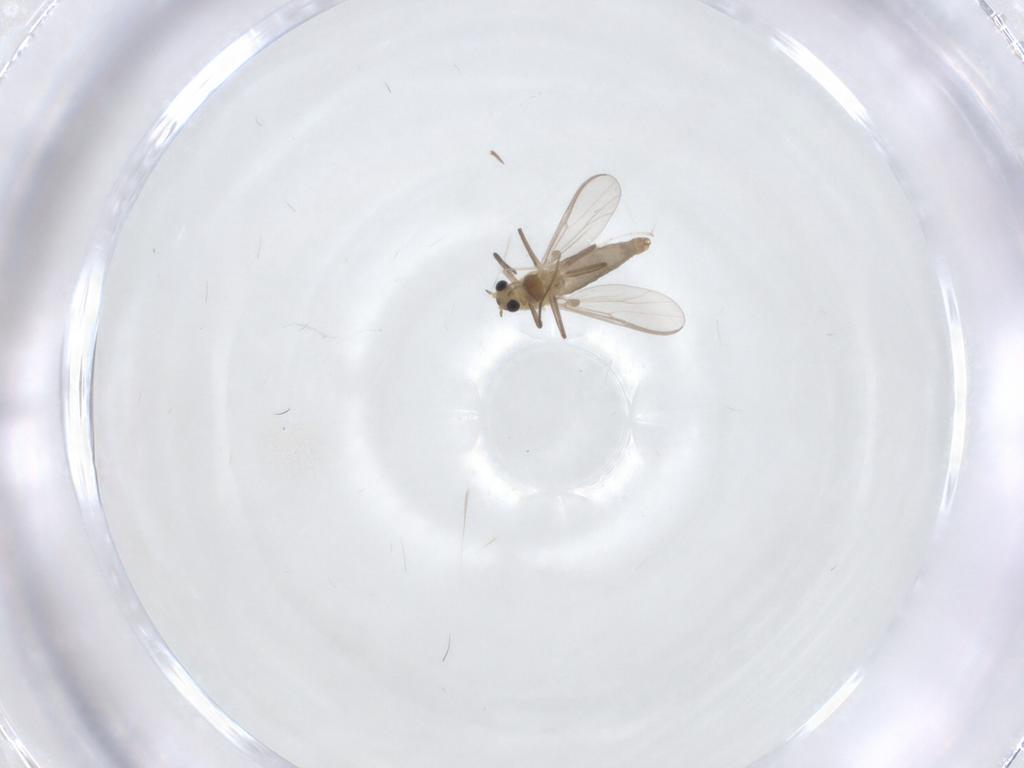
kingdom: Animalia
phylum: Arthropoda
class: Insecta
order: Diptera
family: Chironomidae
